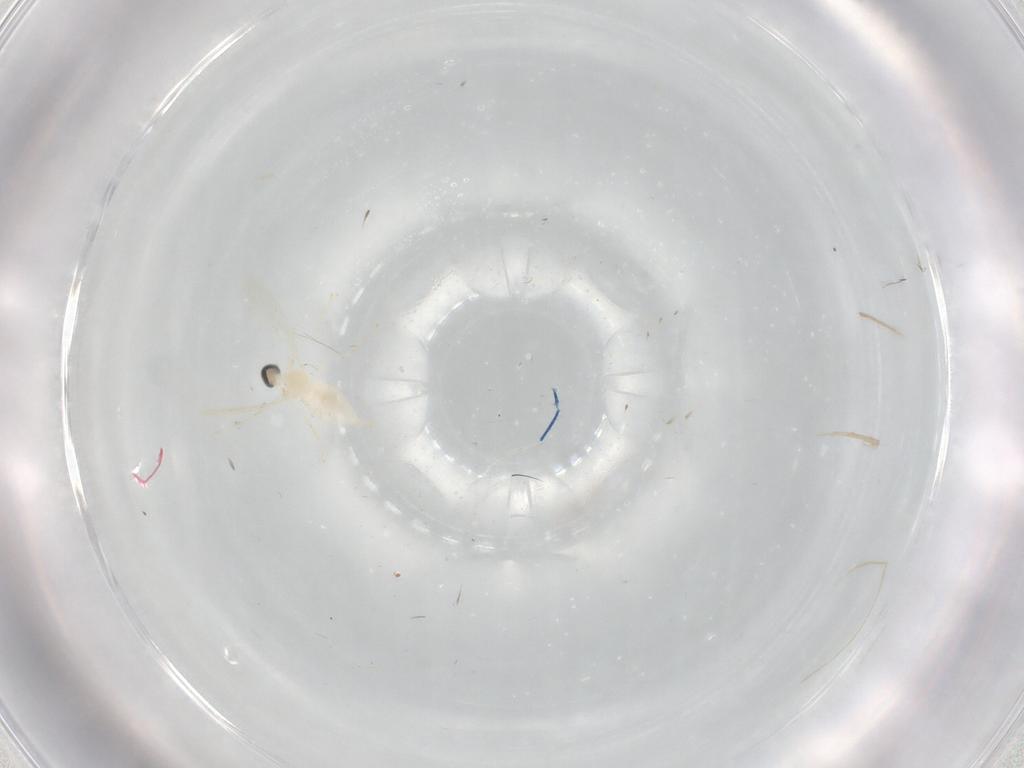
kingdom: Animalia
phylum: Arthropoda
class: Insecta
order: Diptera
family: Cecidomyiidae
